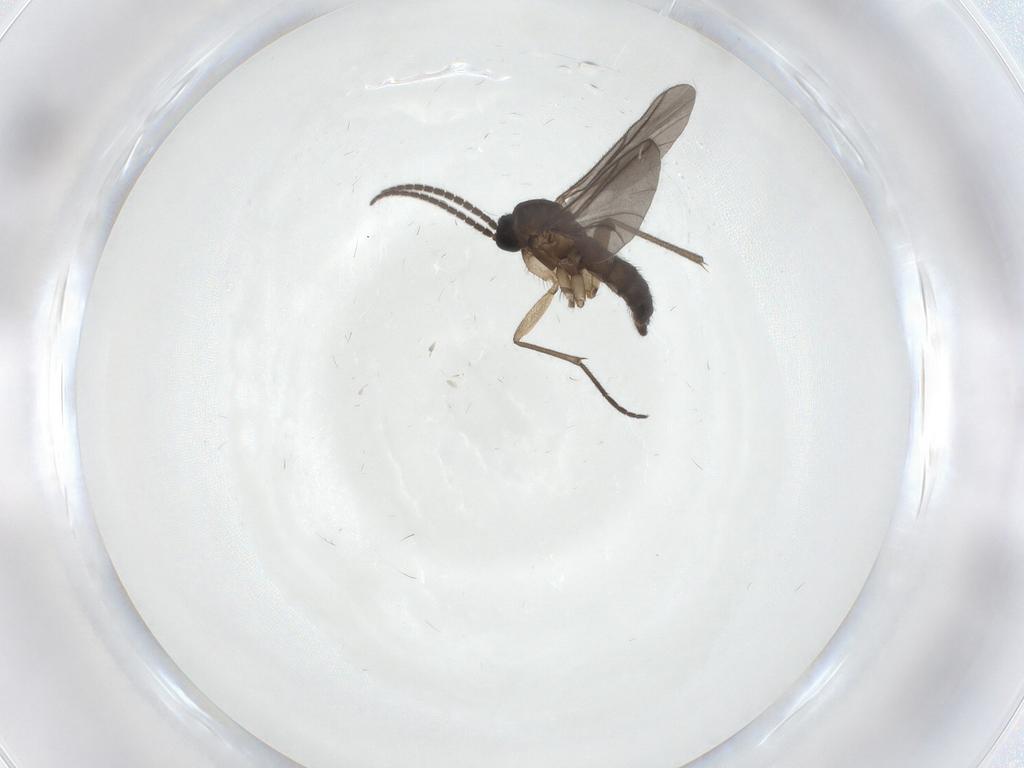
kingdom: Animalia
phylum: Arthropoda
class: Insecta
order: Diptera
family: Sciaridae
